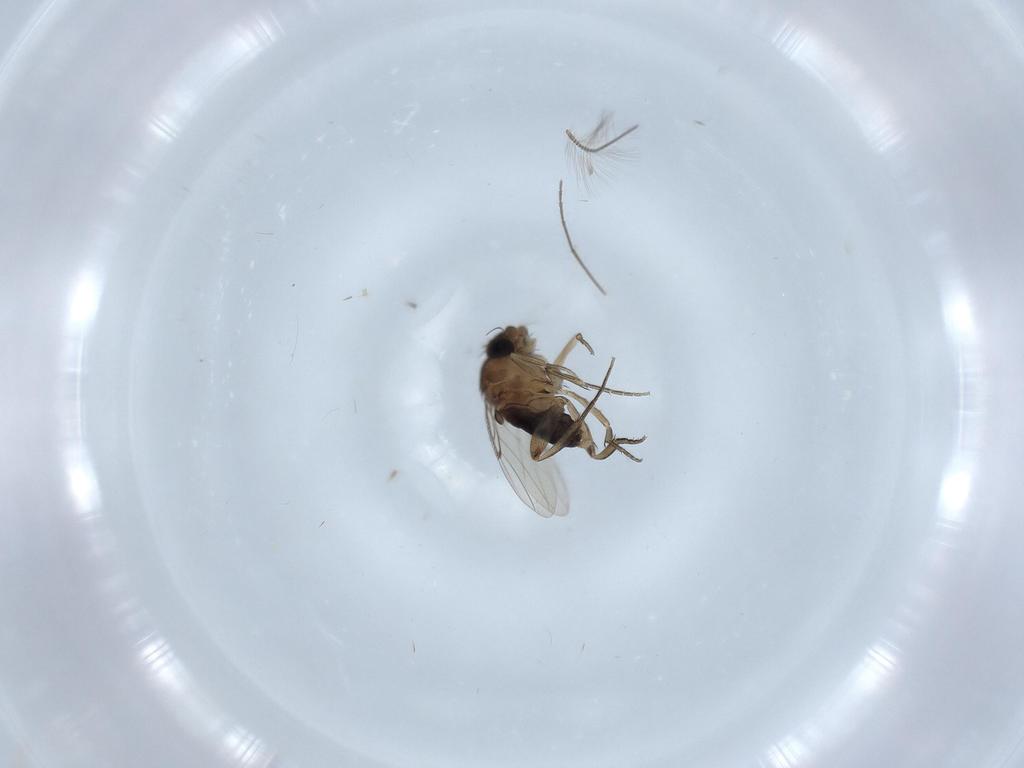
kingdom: Animalia
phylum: Arthropoda
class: Insecta
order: Diptera
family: Phoridae
